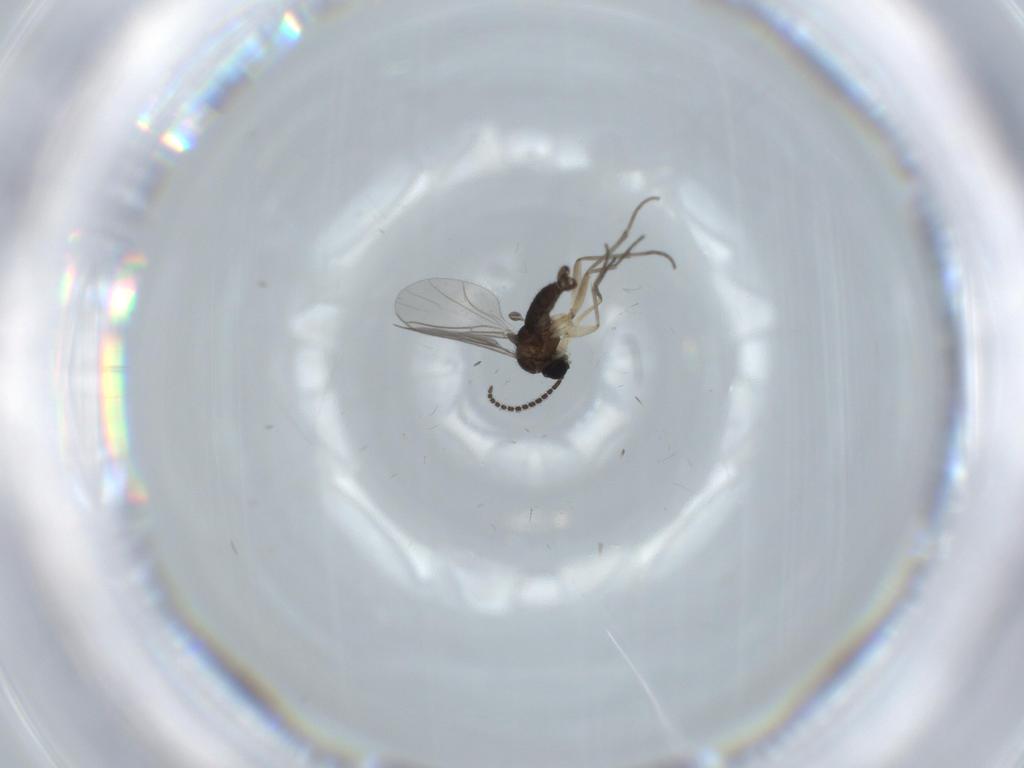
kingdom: Animalia
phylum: Arthropoda
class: Insecta
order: Diptera
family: Sciaridae
